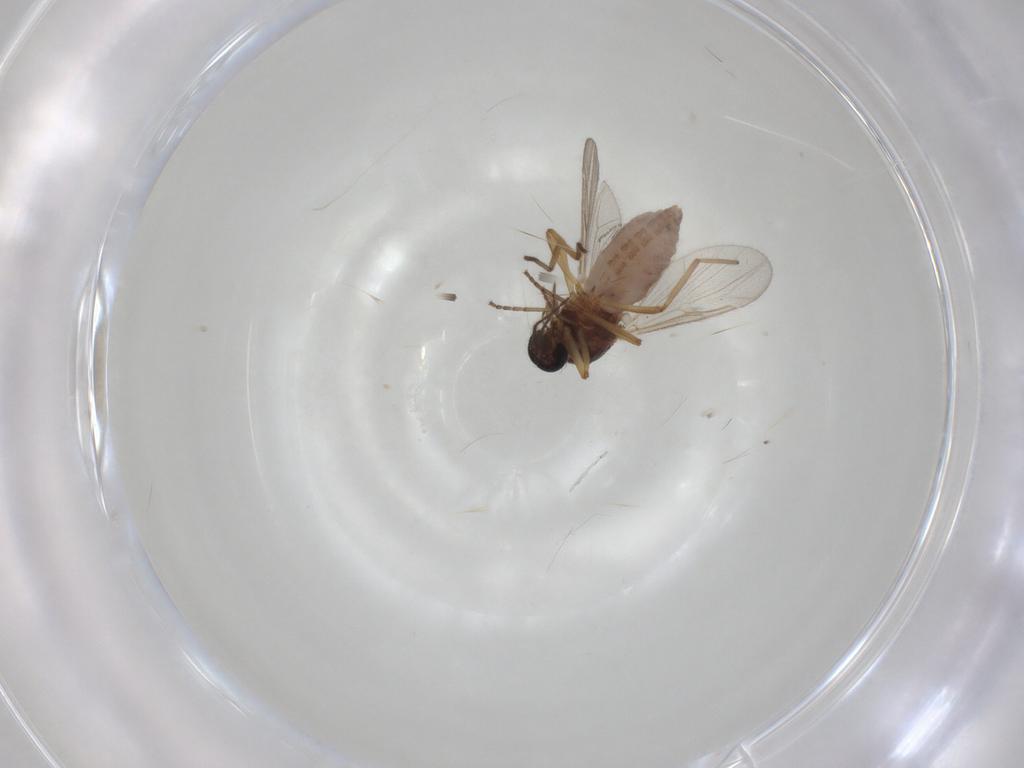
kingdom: Animalia
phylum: Arthropoda
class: Insecta
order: Diptera
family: Ceratopogonidae
